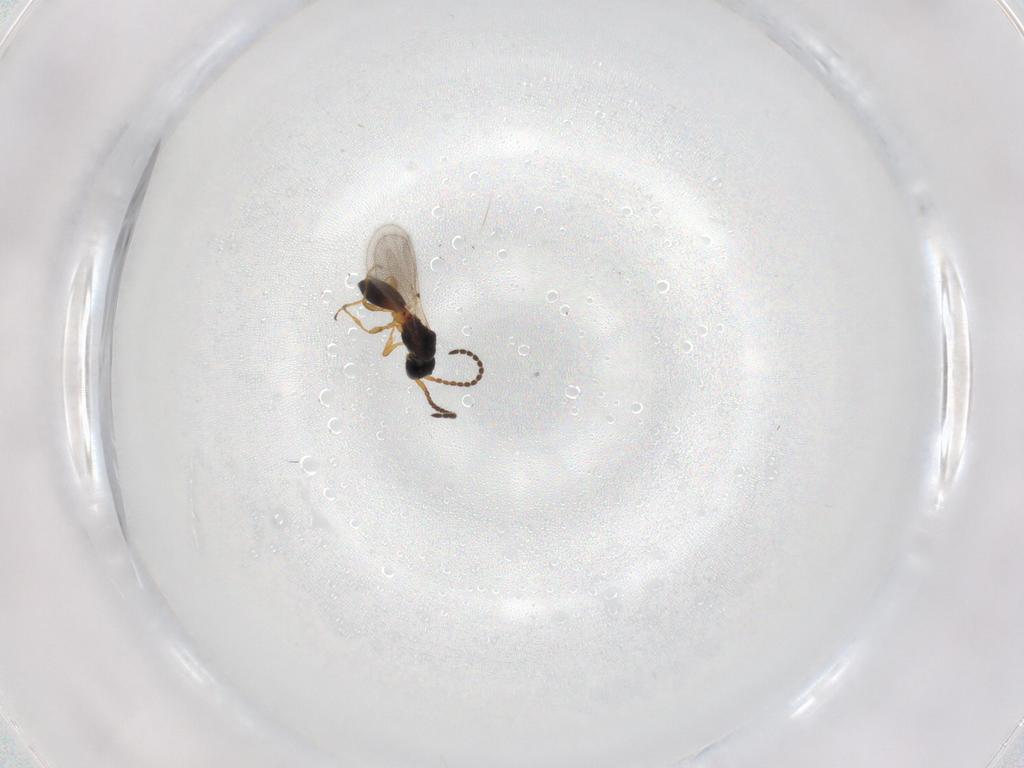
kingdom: Animalia
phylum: Arthropoda
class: Insecta
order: Hymenoptera
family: Diapriidae
